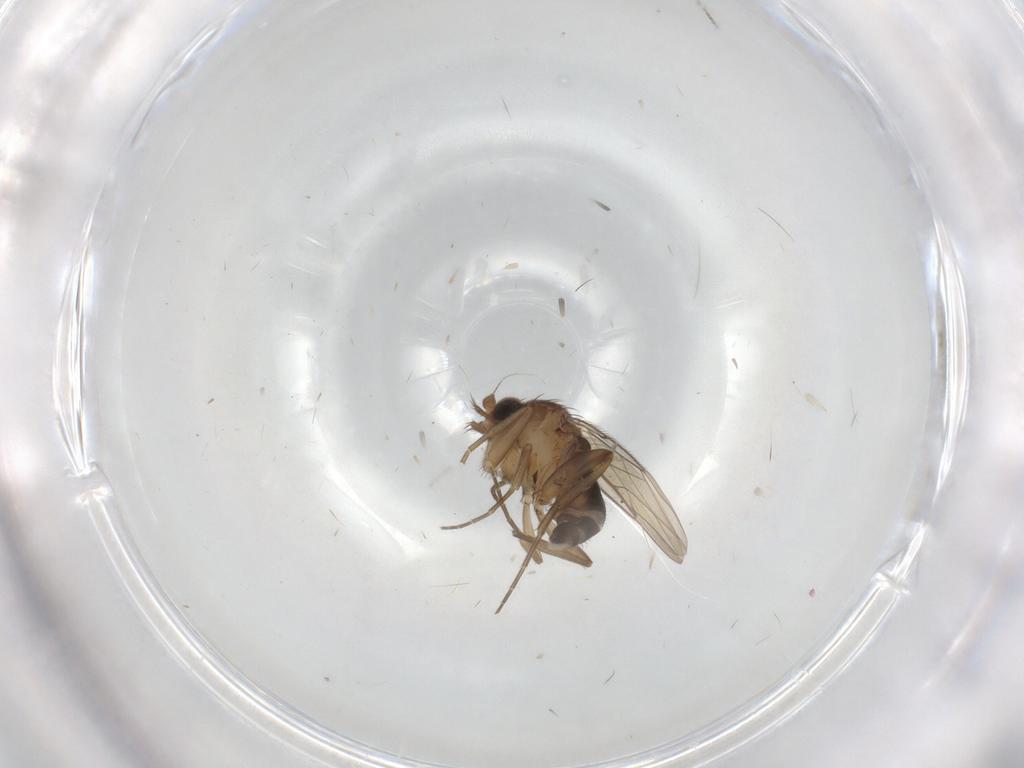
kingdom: Animalia
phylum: Arthropoda
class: Insecta
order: Diptera
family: Phoridae
